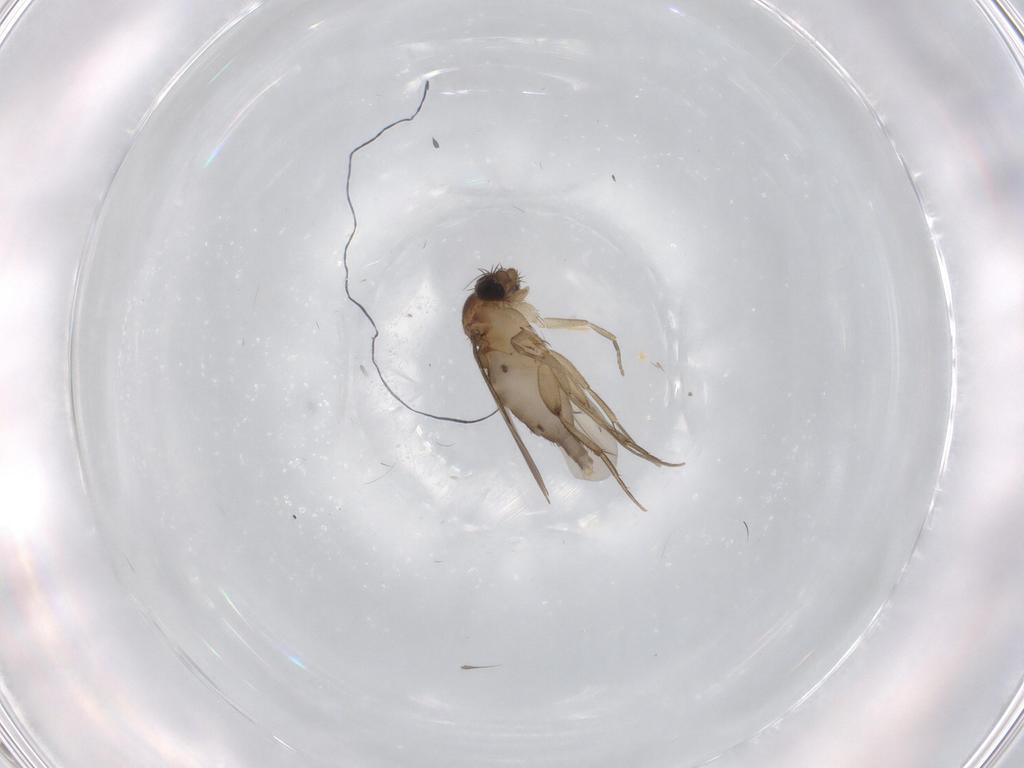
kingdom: Animalia
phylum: Arthropoda
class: Insecta
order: Diptera
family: Phoridae
